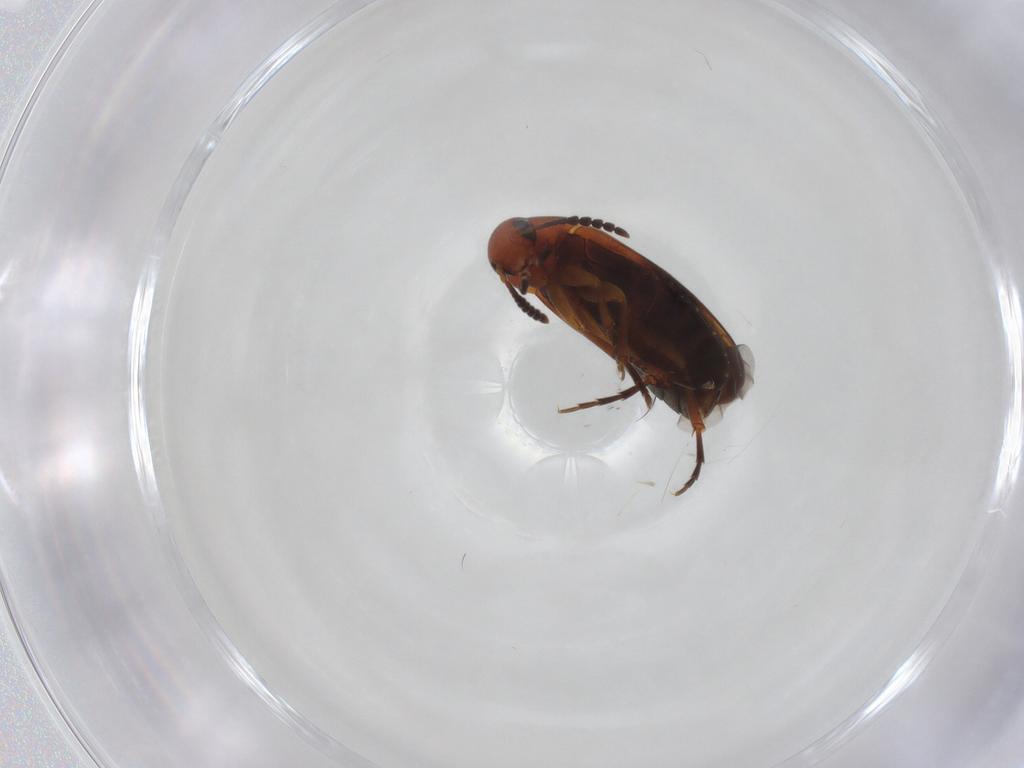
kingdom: Animalia
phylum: Arthropoda
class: Insecta
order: Coleoptera
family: Scraptiidae
